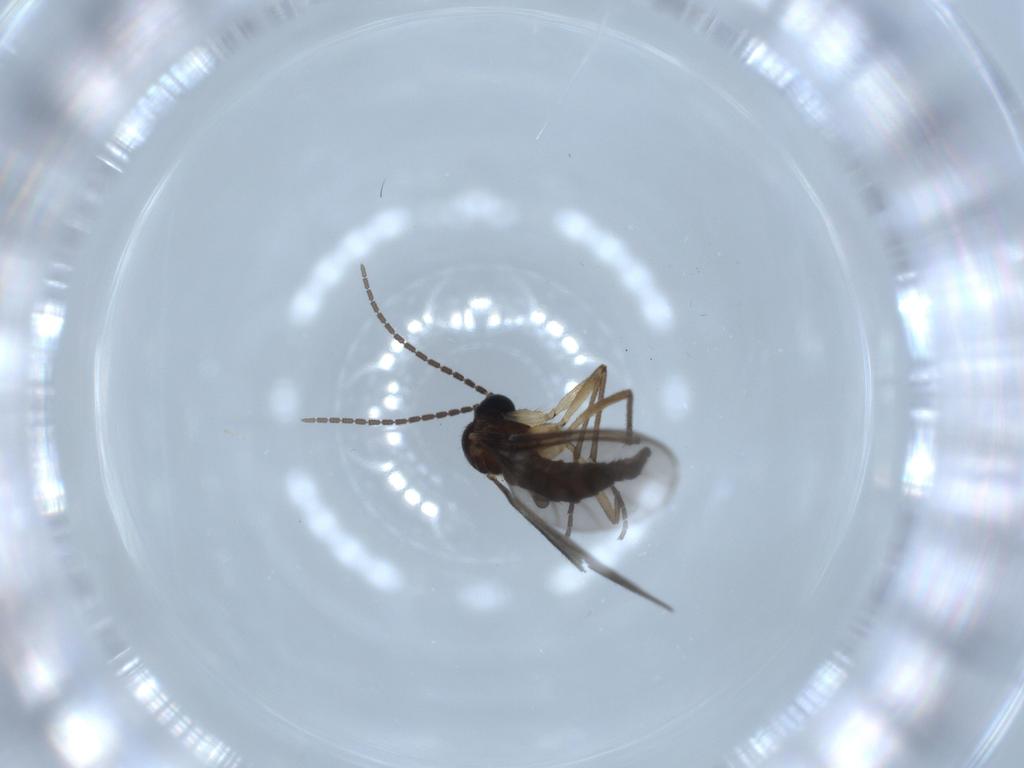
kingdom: Animalia
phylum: Arthropoda
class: Insecta
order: Diptera
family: Sciaridae
